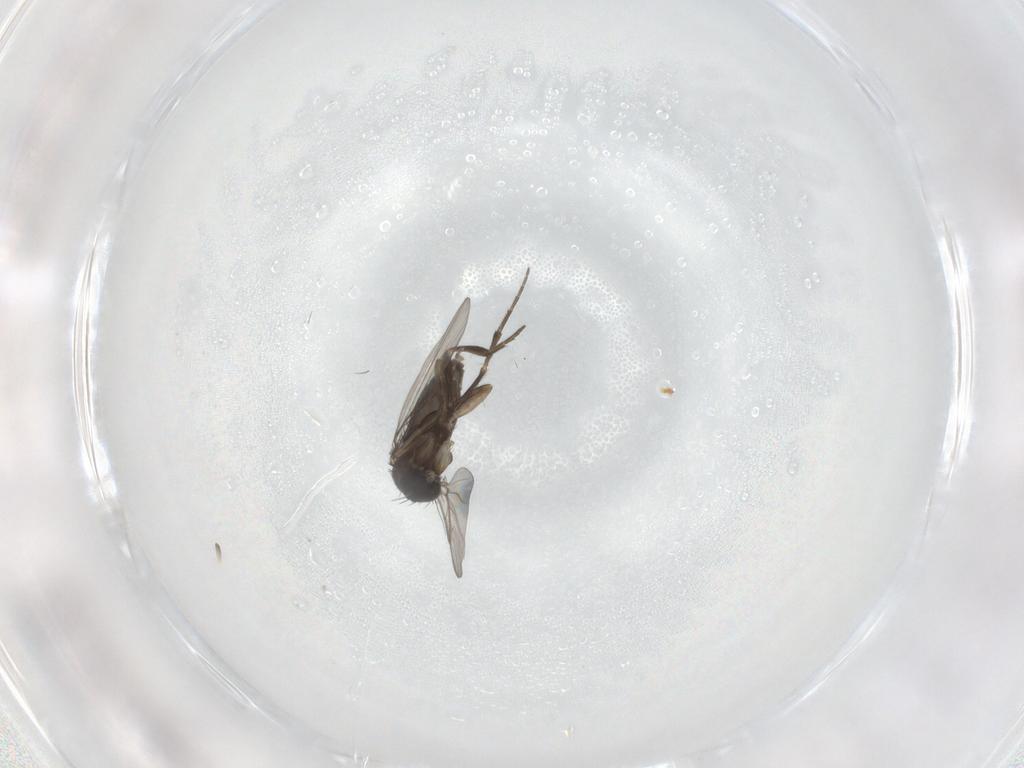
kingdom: Animalia
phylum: Arthropoda
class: Insecta
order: Diptera
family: Phoridae
